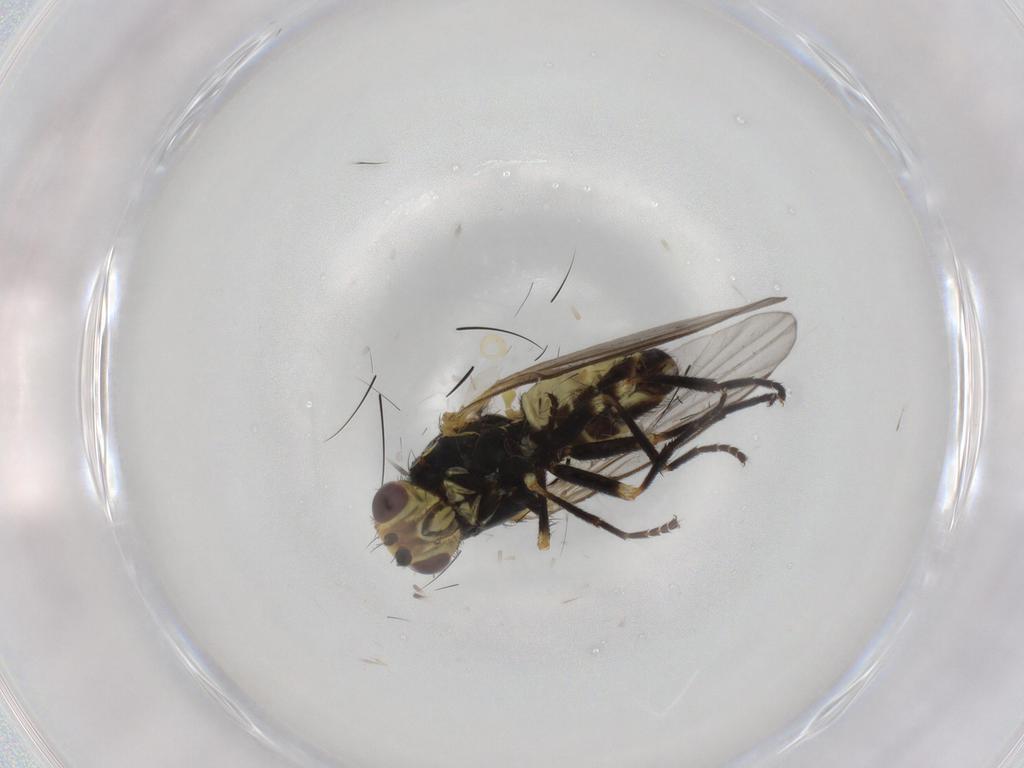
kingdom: Animalia
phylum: Arthropoda
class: Insecta
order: Diptera
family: Agromyzidae
